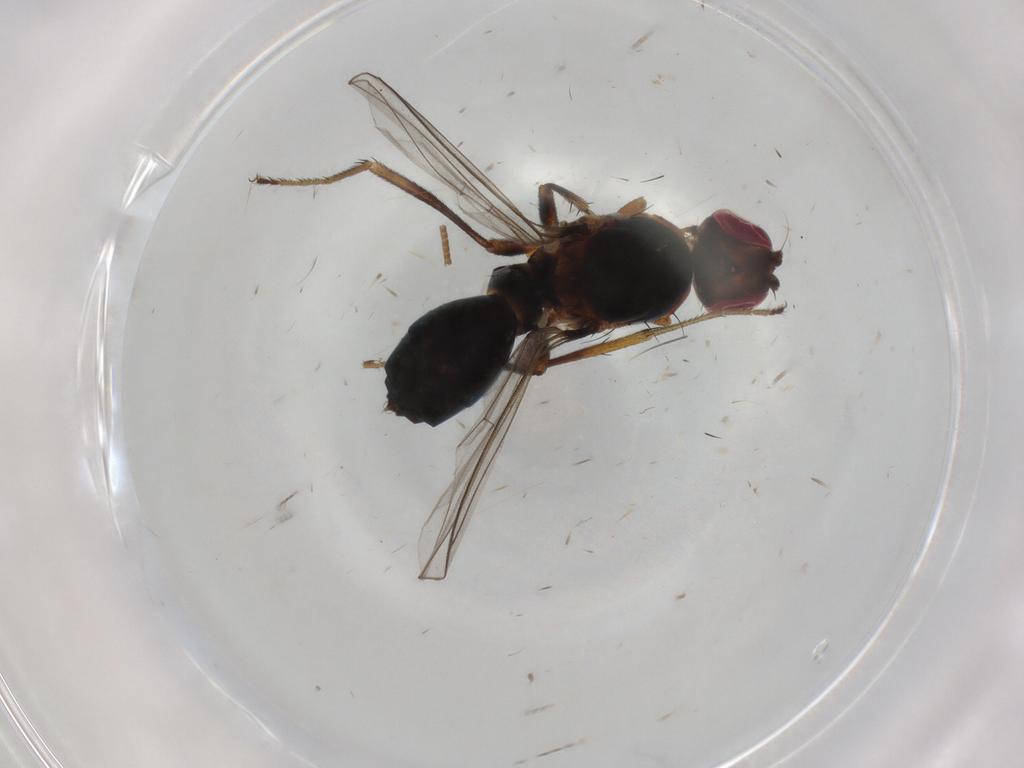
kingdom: Animalia
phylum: Arthropoda
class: Insecta
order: Diptera
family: Sepsidae
